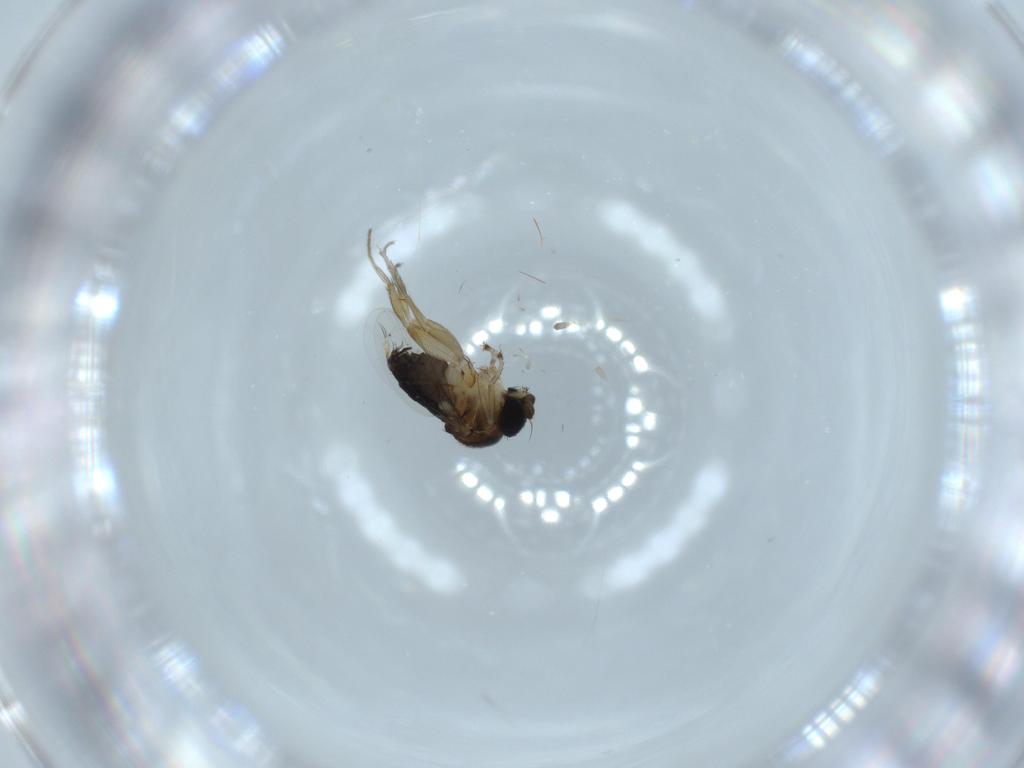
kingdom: Animalia
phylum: Arthropoda
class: Insecta
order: Diptera
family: Phoridae
